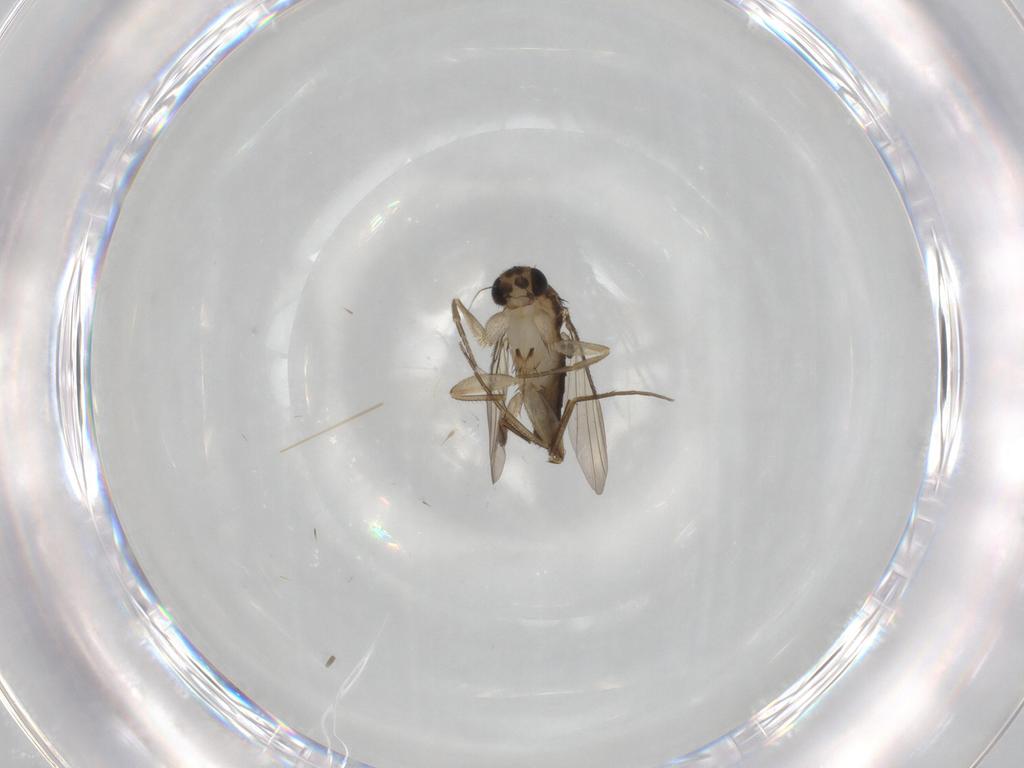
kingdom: Animalia
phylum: Arthropoda
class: Insecta
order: Diptera
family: Phoridae
